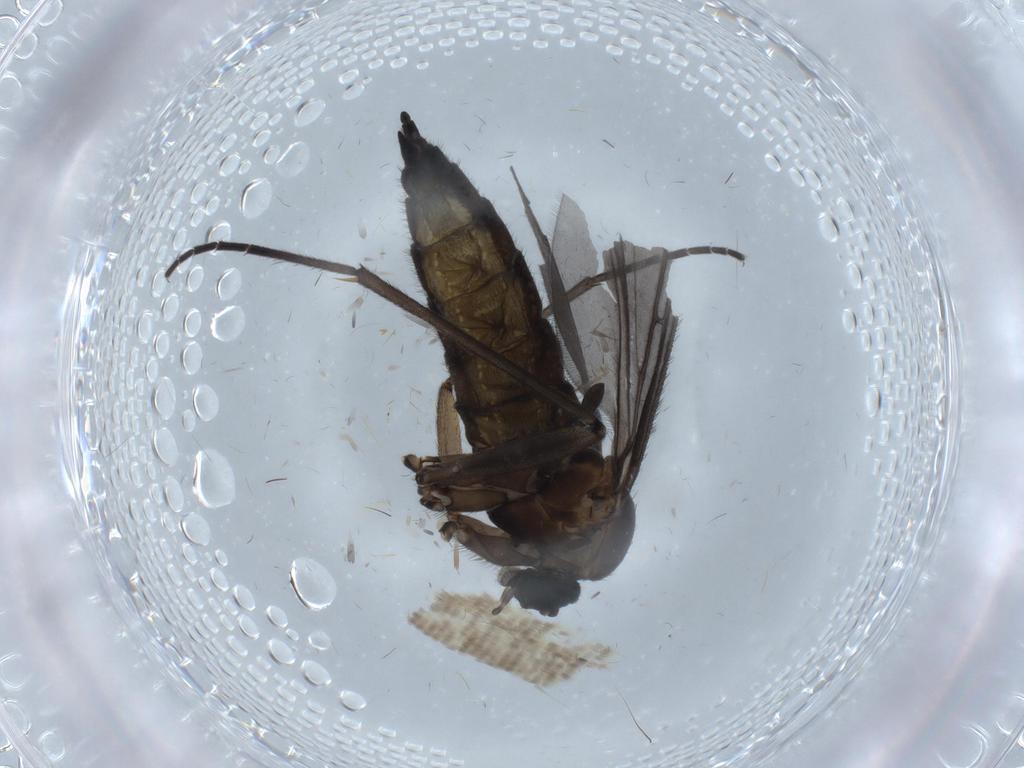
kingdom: Animalia
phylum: Arthropoda
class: Insecta
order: Diptera
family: Sciaridae
